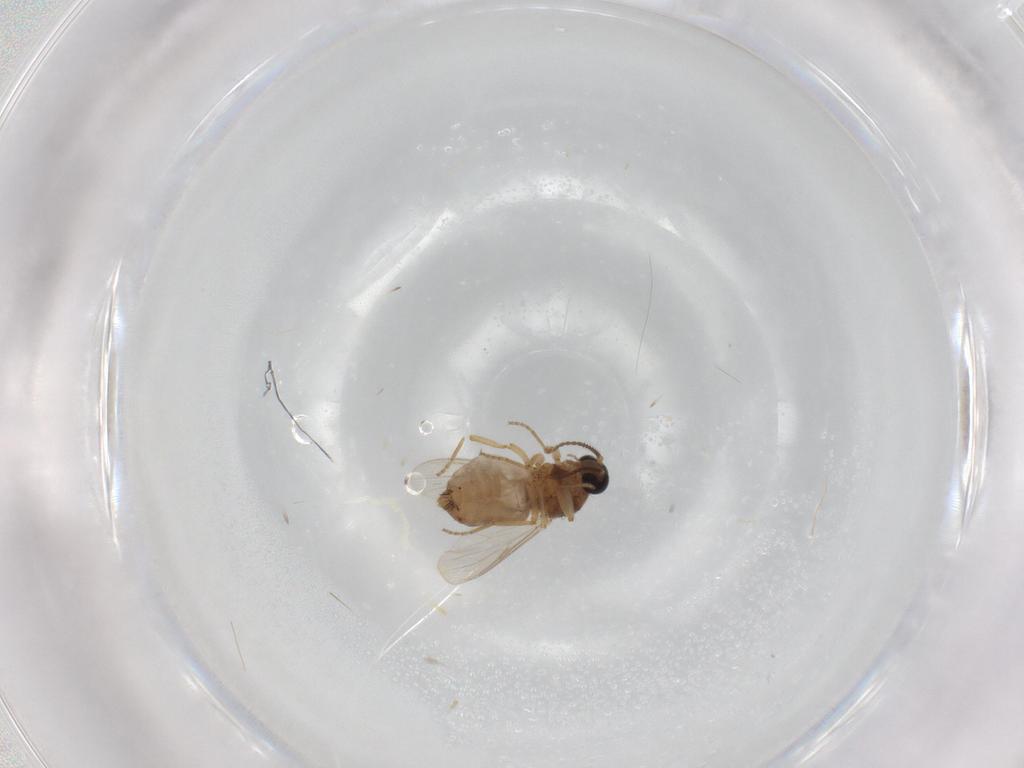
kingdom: Animalia
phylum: Arthropoda
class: Insecta
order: Diptera
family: Ceratopogonidae
